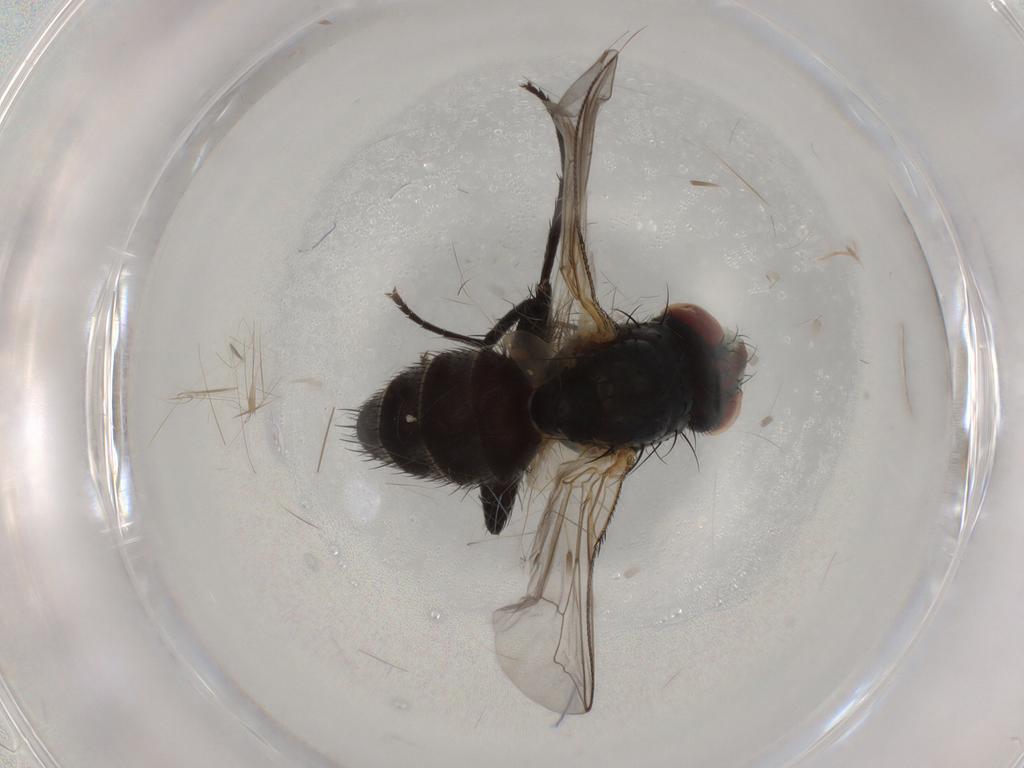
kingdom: Animalia
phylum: Arthropoda
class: Insecta
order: Diptera
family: Sarcophagidae
